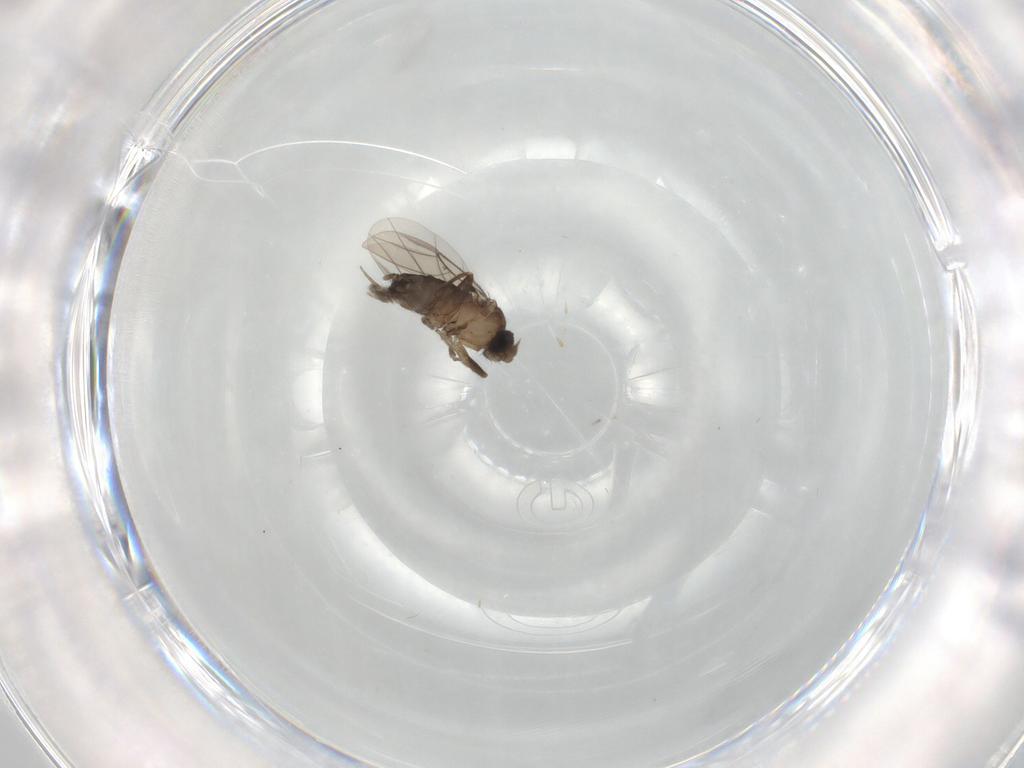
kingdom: Animalia
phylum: Arthropoda
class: Insecta
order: Diptera
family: Phoridae
